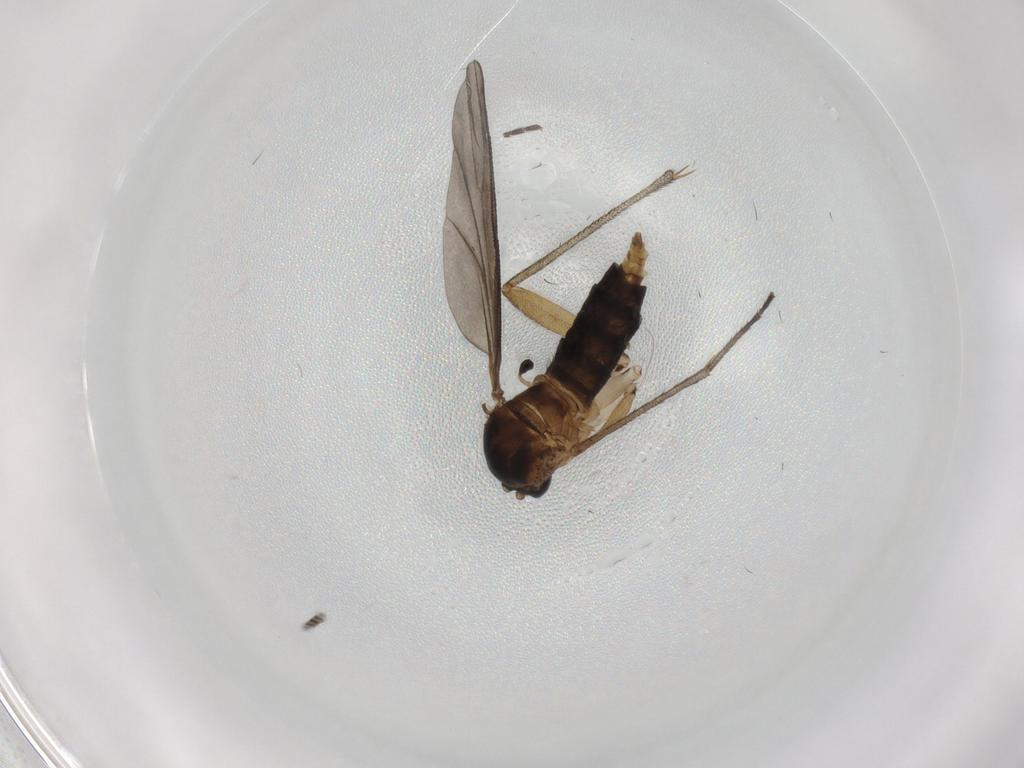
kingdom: Animalia
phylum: Arthropoda
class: Insecta
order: Diptera
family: Sciaridae
